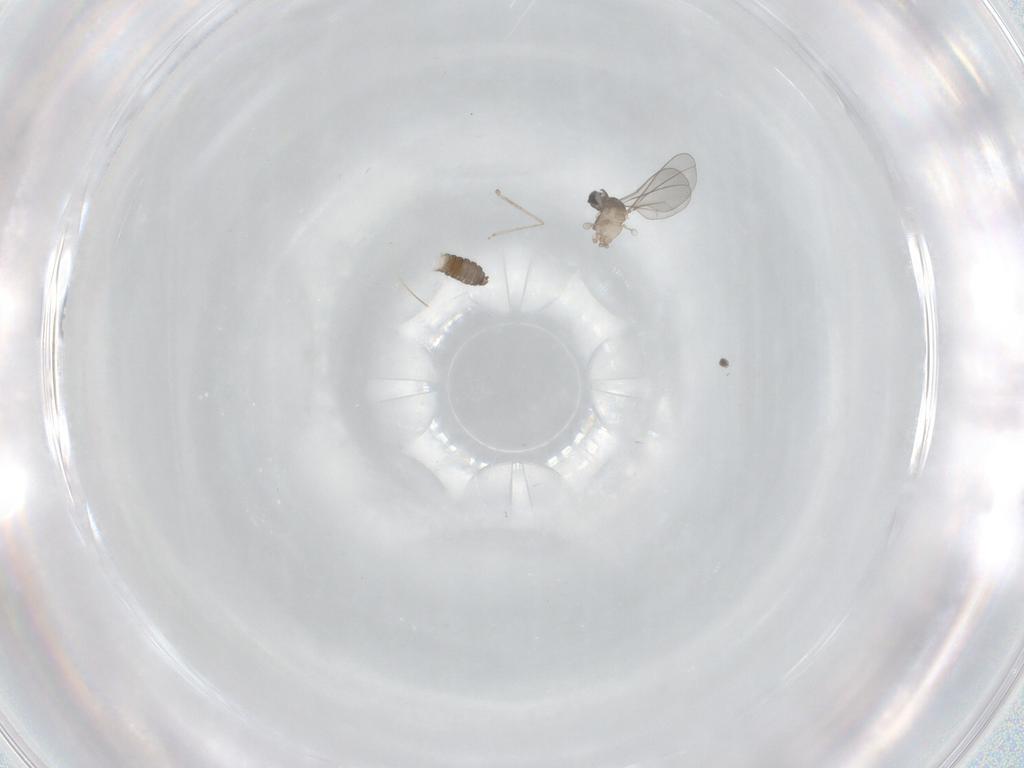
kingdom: Animalia
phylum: Arthropoda
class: Insecta
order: Diptera
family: Cecidomyiidae
